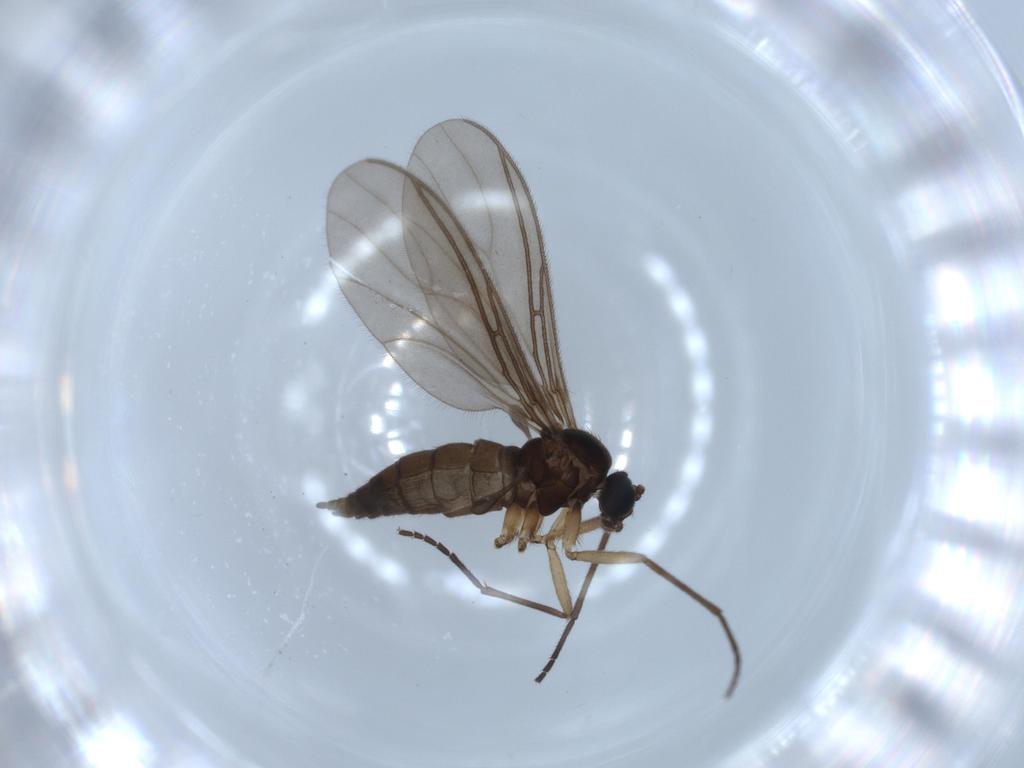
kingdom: Animalia
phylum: Arthropoda
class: Insecta
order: Diptera
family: Sciaridae
